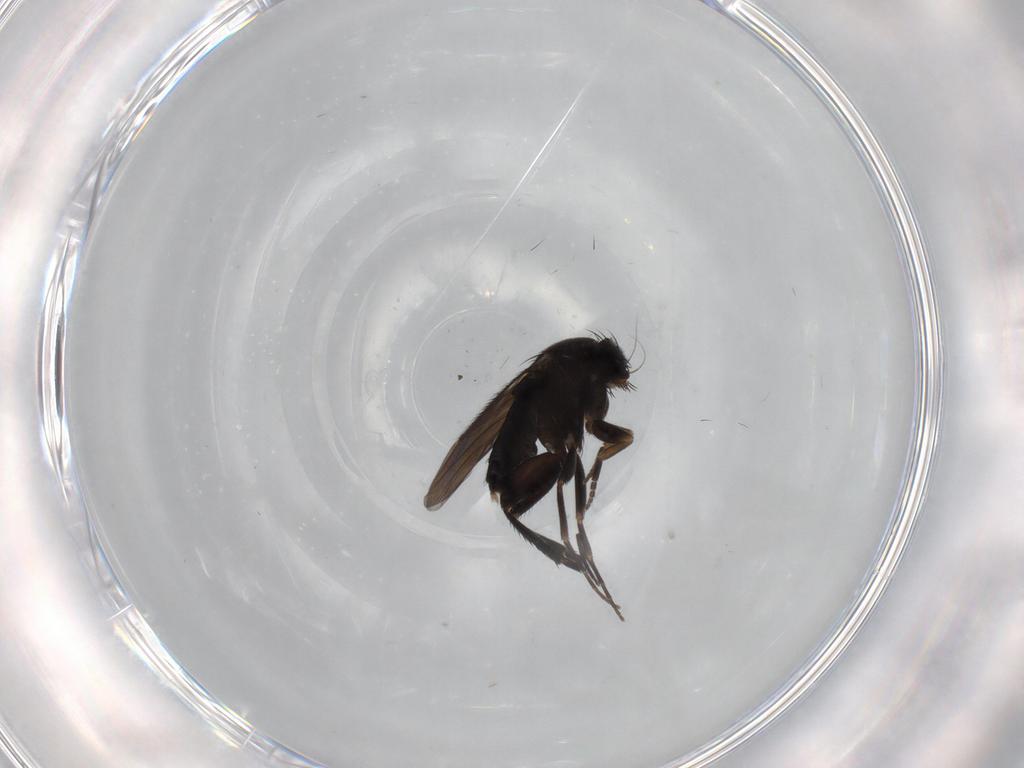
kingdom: Animalia
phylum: Arthropoda
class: Insecta
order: Diptera
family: Phoridae
